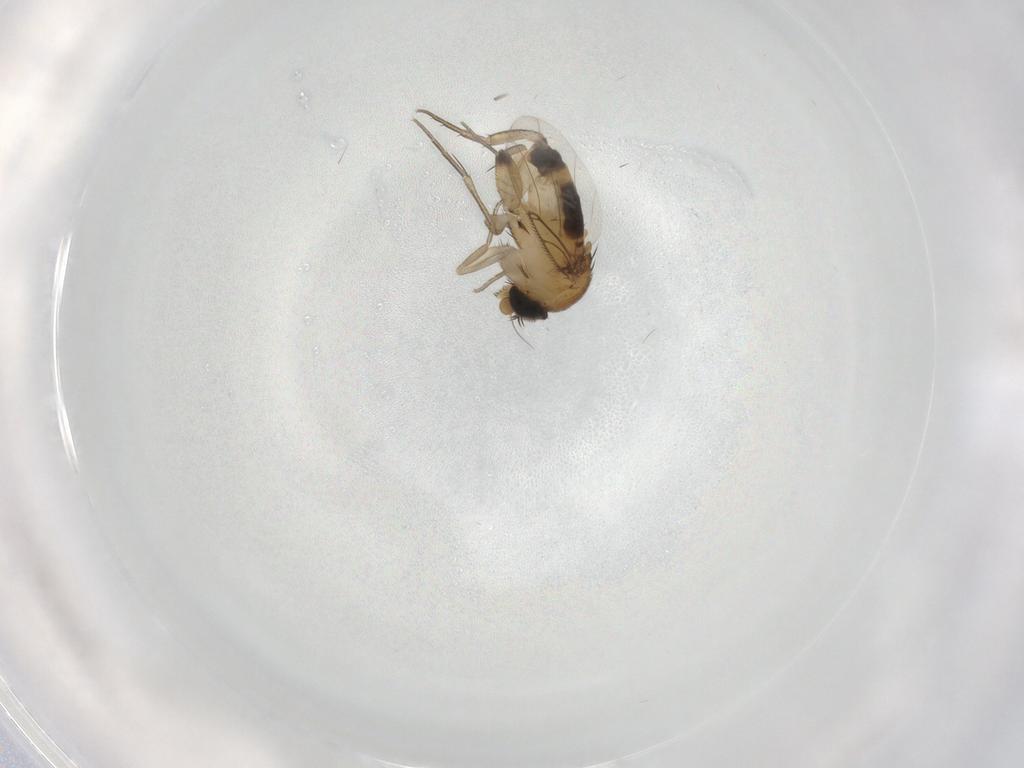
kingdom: Animalia
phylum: Arthropoda
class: Insecta
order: Diptera
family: Phoridae
